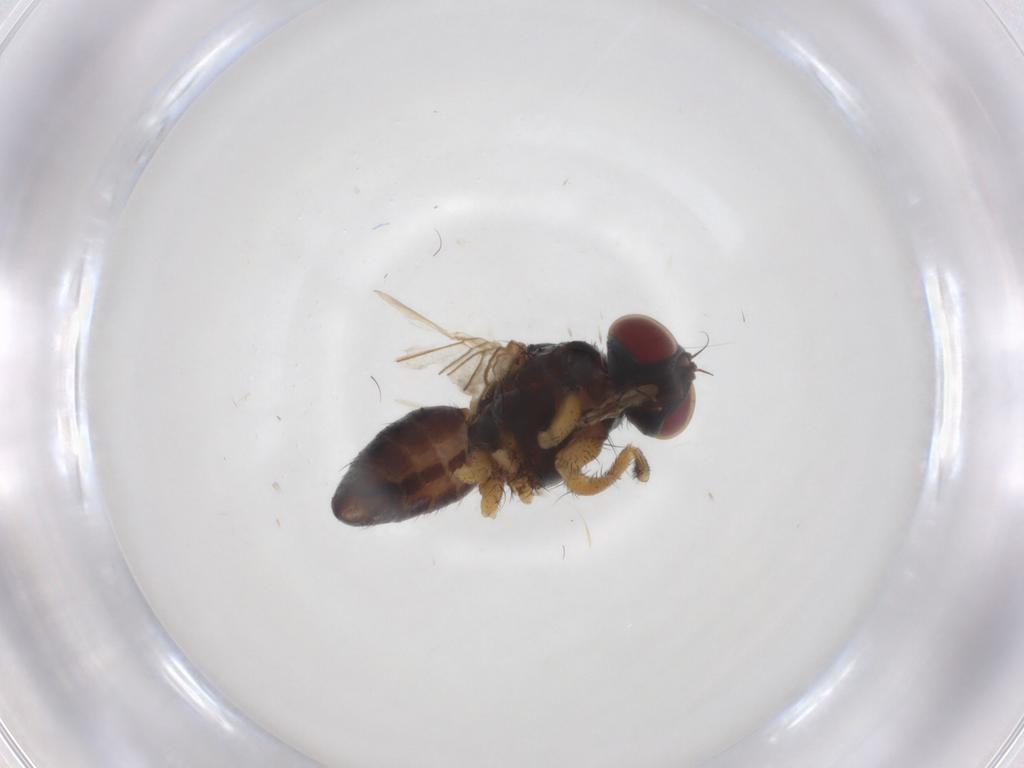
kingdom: Animalia
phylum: Arthropoda
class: Insecta
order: Diptera
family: Muscidae
